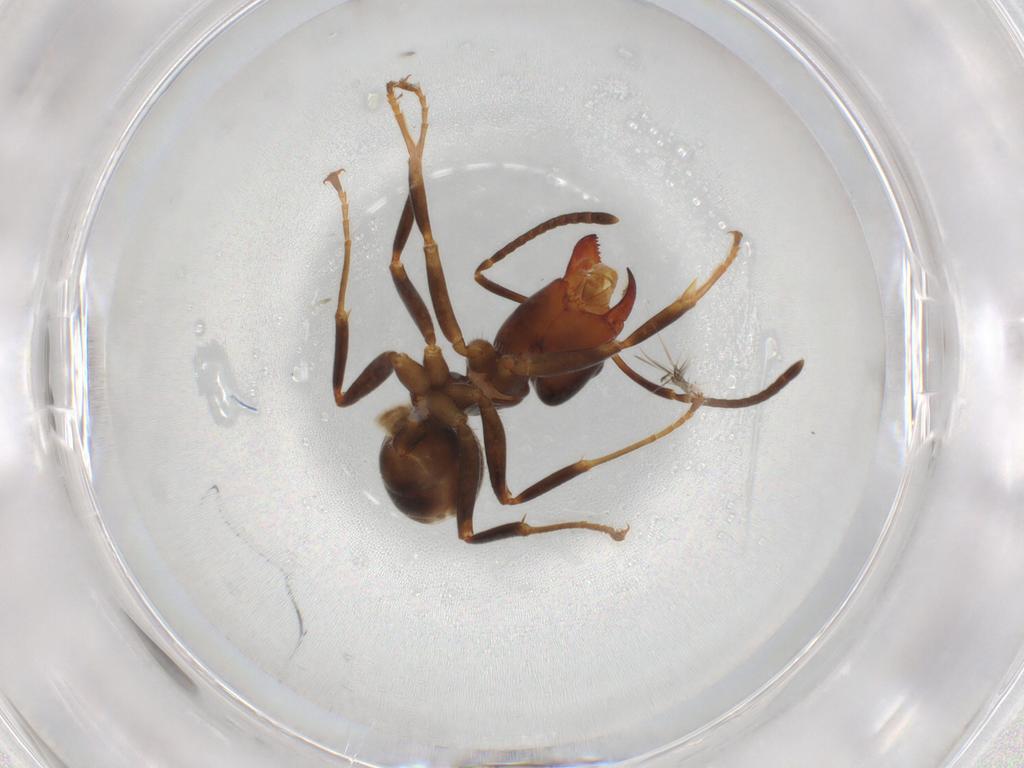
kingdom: Animalia
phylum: Arthropoda
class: Insecta
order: Hymenoptera
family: Formicidae
